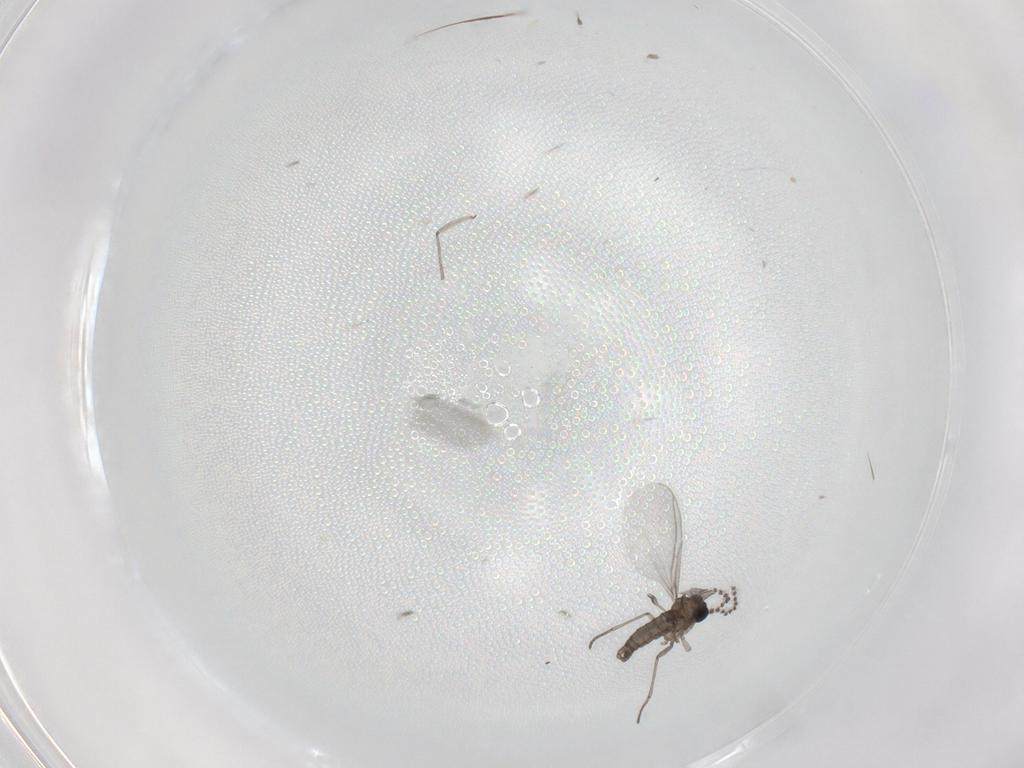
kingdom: Animalia
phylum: Arthropoda
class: Insecta
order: Diptera
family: Sciaridae
